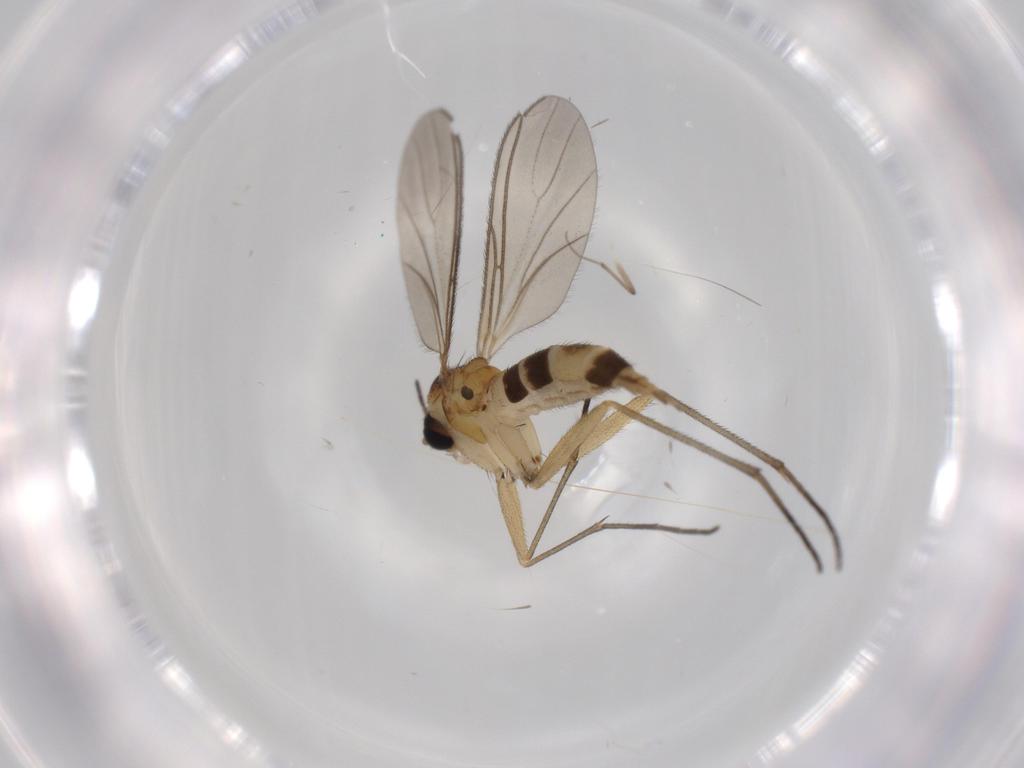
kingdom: Animalia
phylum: Arthropoda
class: Insecta
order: Diptera
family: Chironomidae
